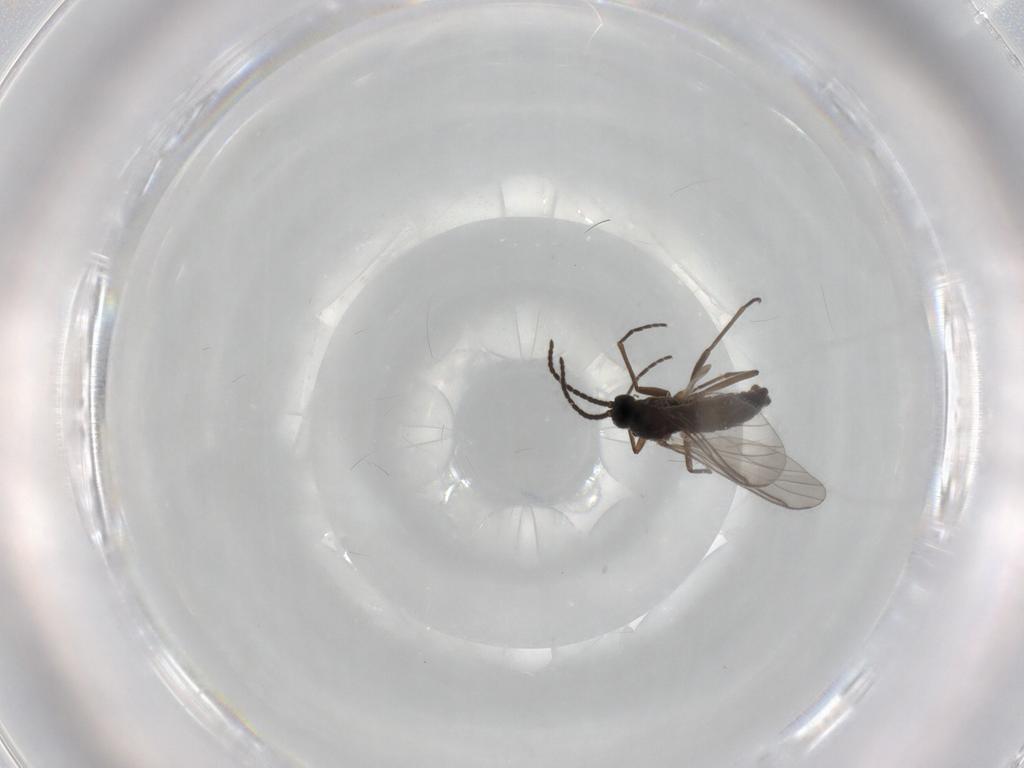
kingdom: Animalia
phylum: Arthropoda
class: Insecta
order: Diptera
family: Sciaridae
